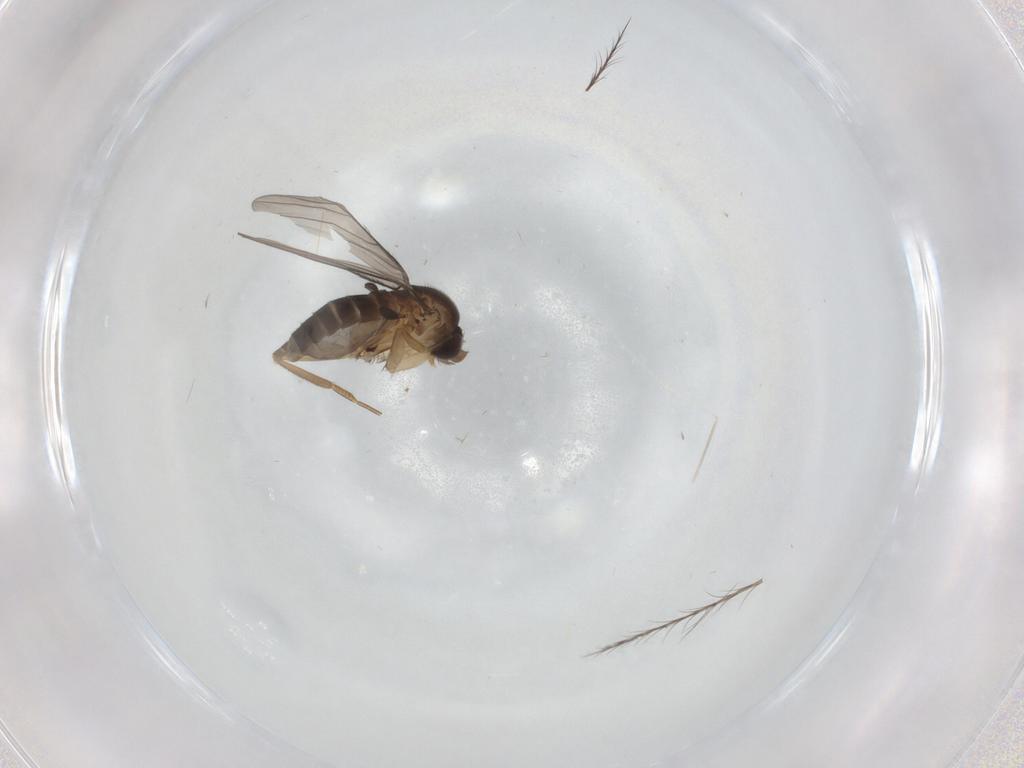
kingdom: Animalia
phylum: Arthropoda
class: Insecta
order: Diptera
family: Phoridae
